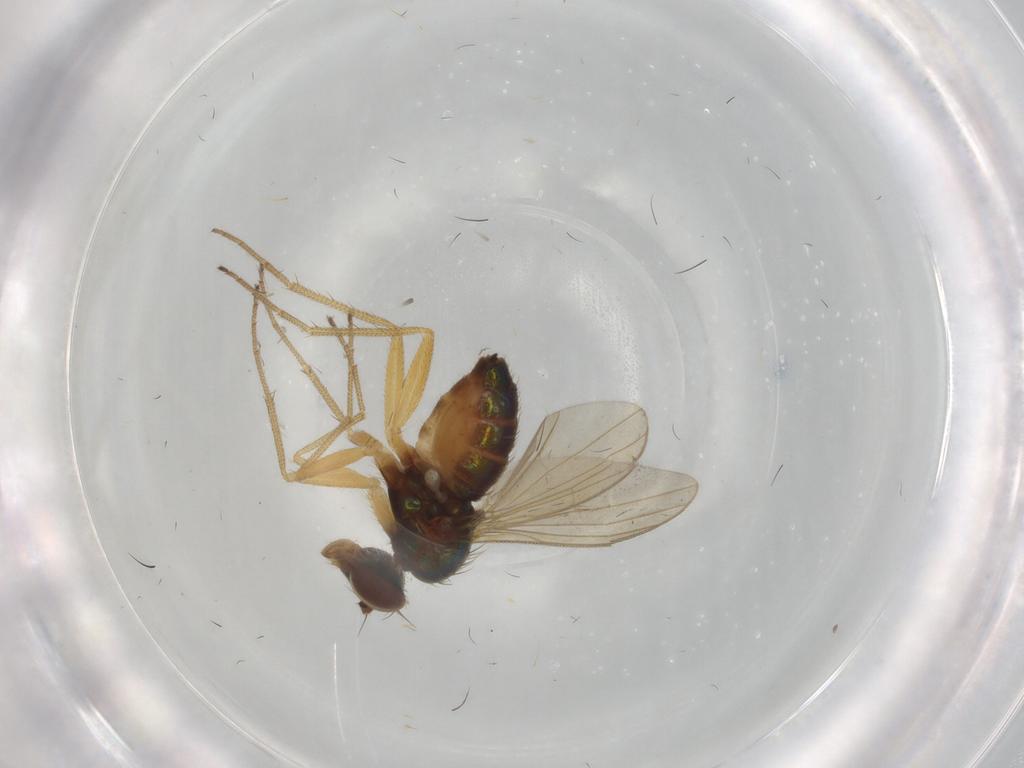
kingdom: Animalia
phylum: Arthropoda
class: Insecta
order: Diptera
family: Dolichopodidae
